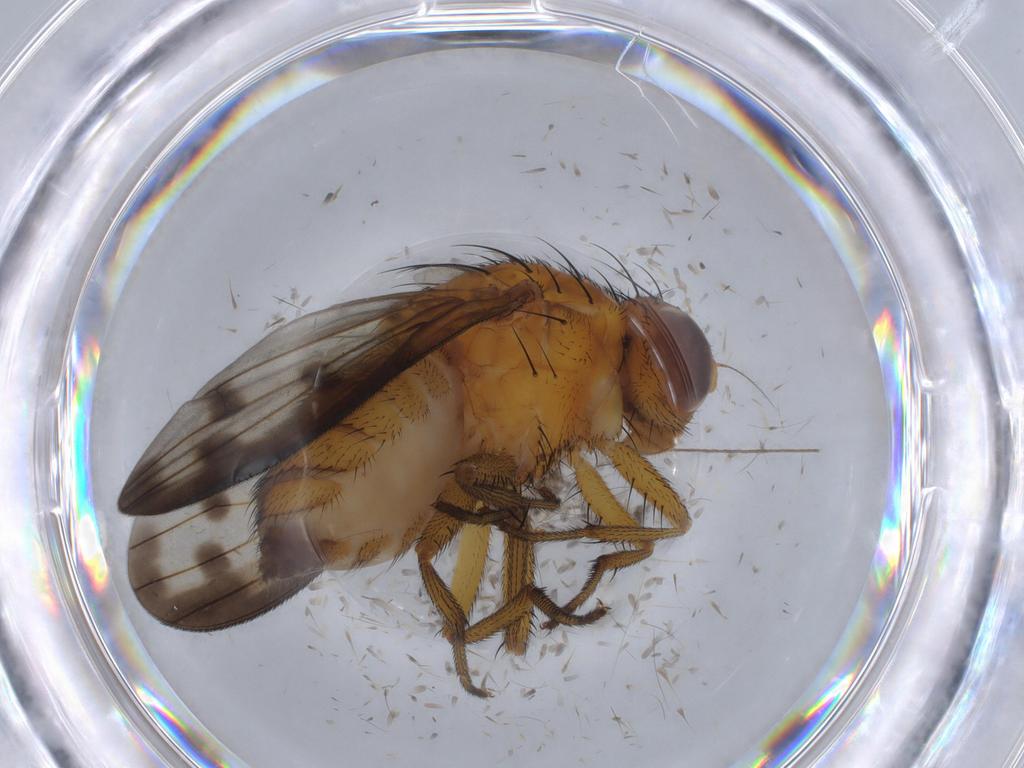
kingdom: Animalia
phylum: Arthropoda
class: Insecta
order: Diptera
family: Limoniidae
